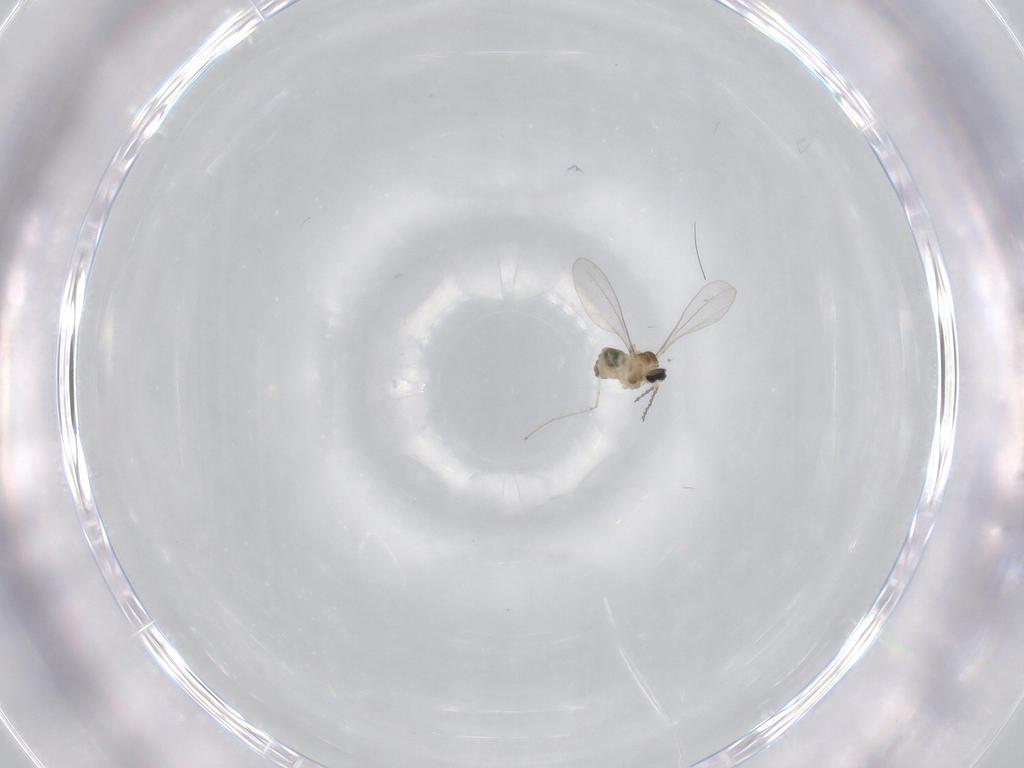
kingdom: Animalia
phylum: Arthropoda
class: Insecta
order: Diptera
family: Cecidomyiidae
